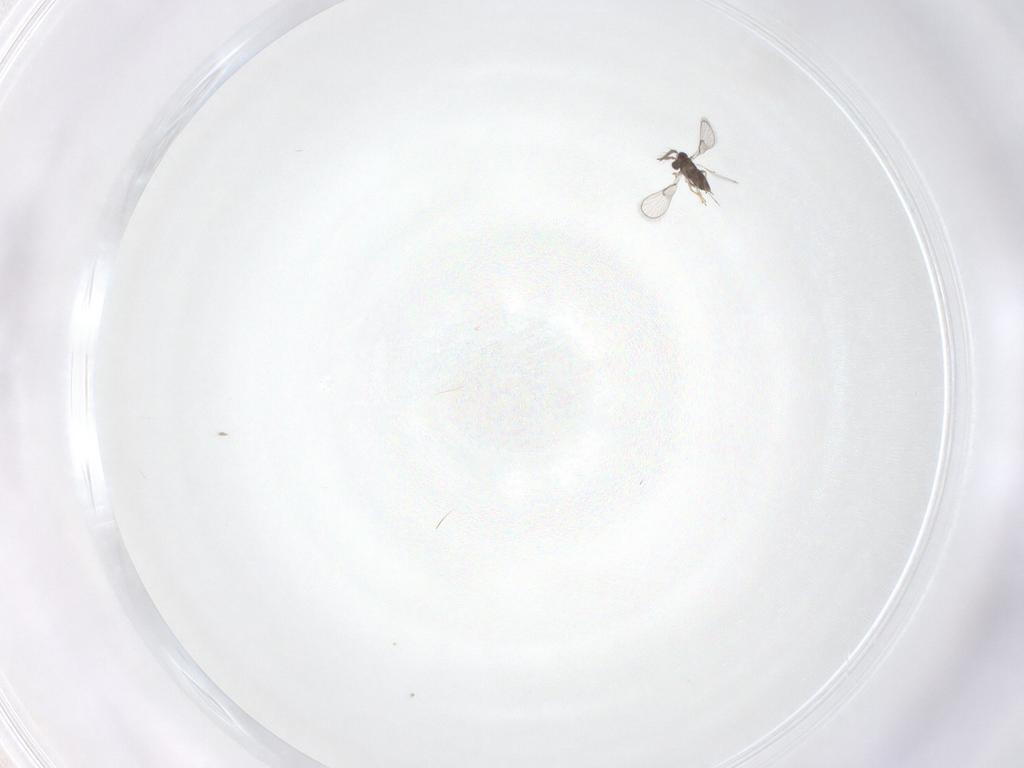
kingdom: Animalia
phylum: Arthropoda
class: Insecta
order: Hymenoptera
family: Trichogrammatidae
